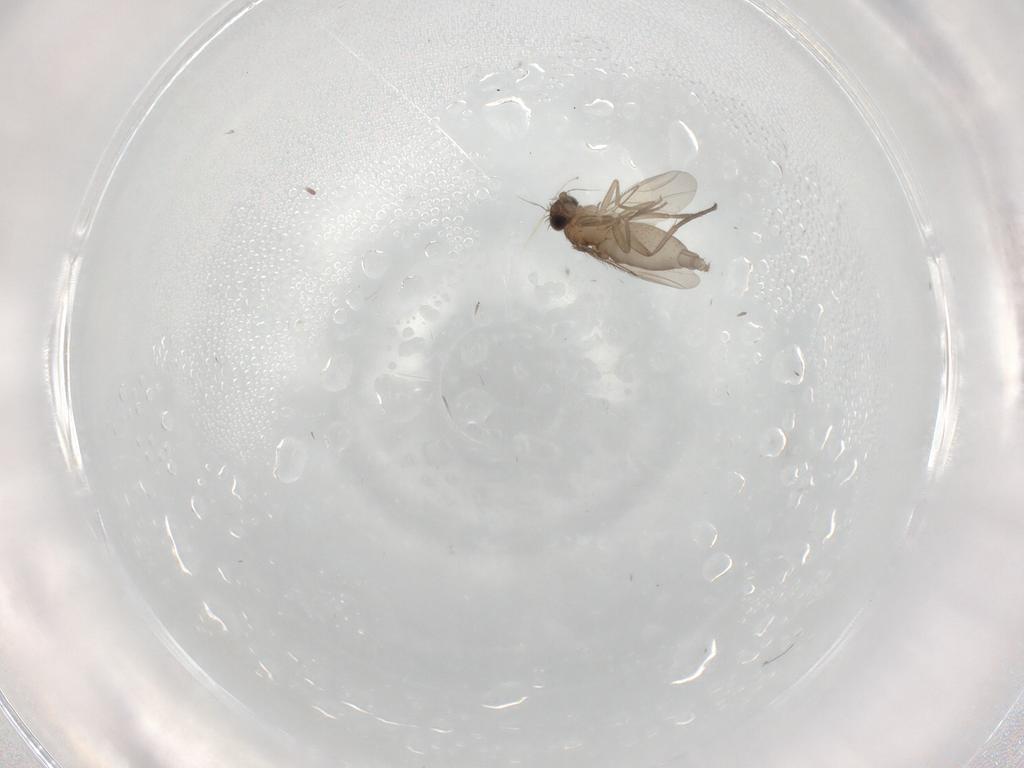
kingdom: Animalia
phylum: Arthropoda
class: Insecta
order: Diptera
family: Phoridae
